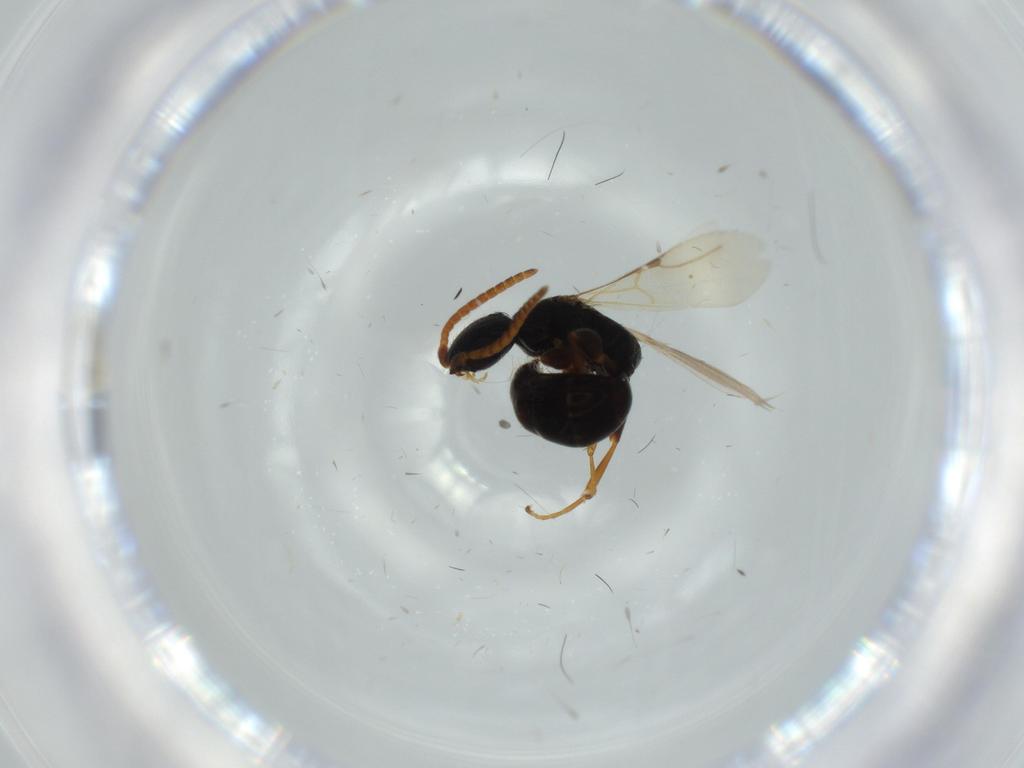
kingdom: Animalia
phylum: Arthropoda
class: Insecta
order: Hymenoptera
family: Bethylidae
